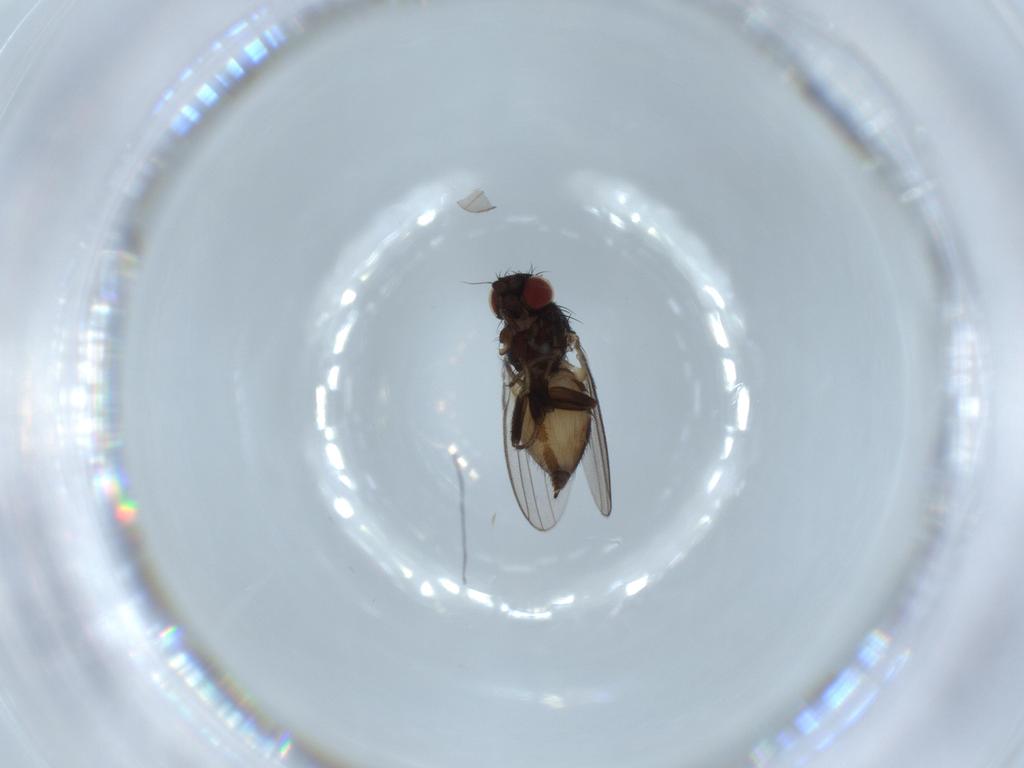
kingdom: Animalia
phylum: Arthropoda
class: Insecta
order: Diptera
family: Milichiidae
